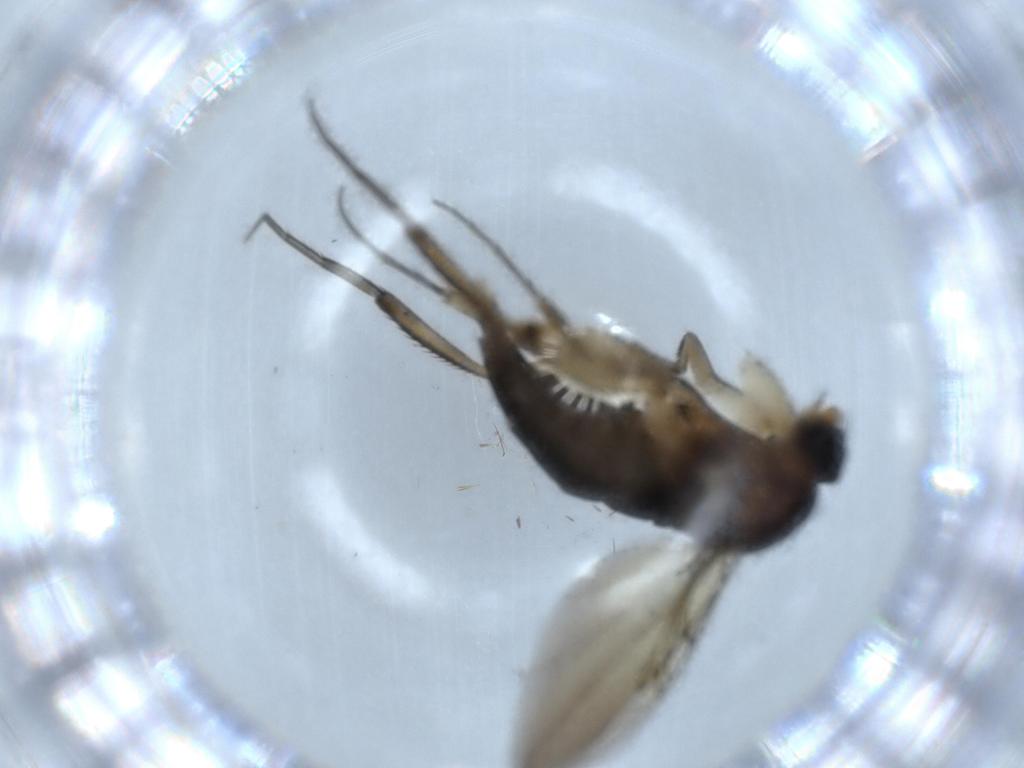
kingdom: Animalia
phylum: Arthropoda
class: Insecta
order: Diptera
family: Phoridae
